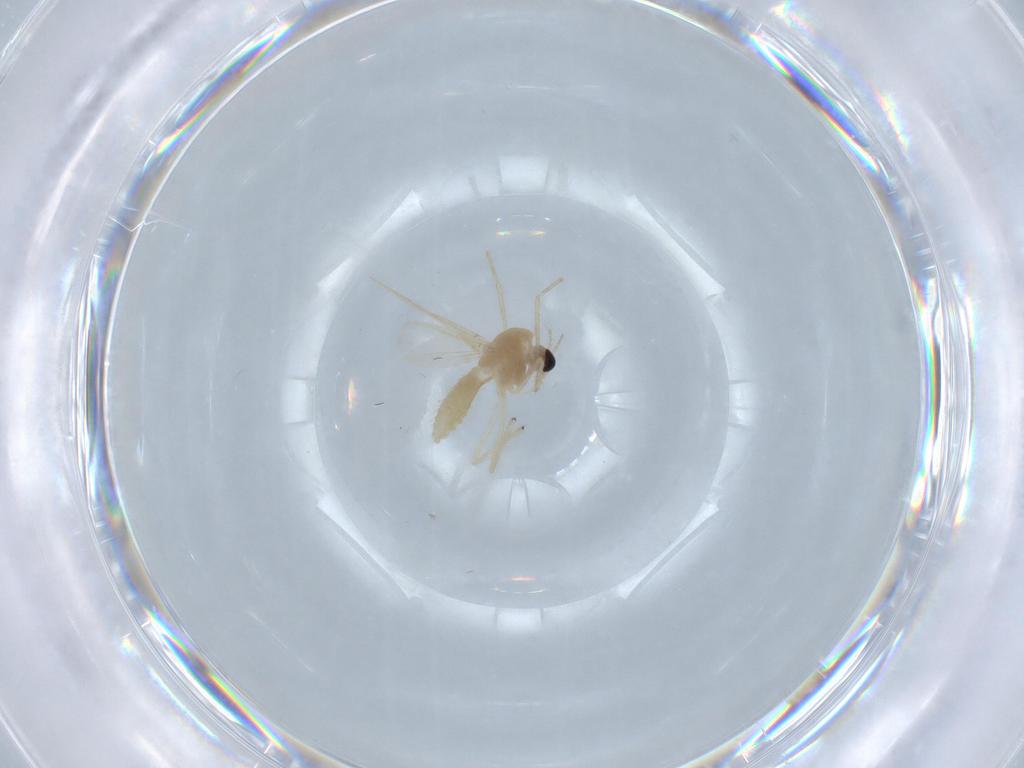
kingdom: Animalia
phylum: Arthropoda
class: Insecta
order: Diptera
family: Chironomidae
